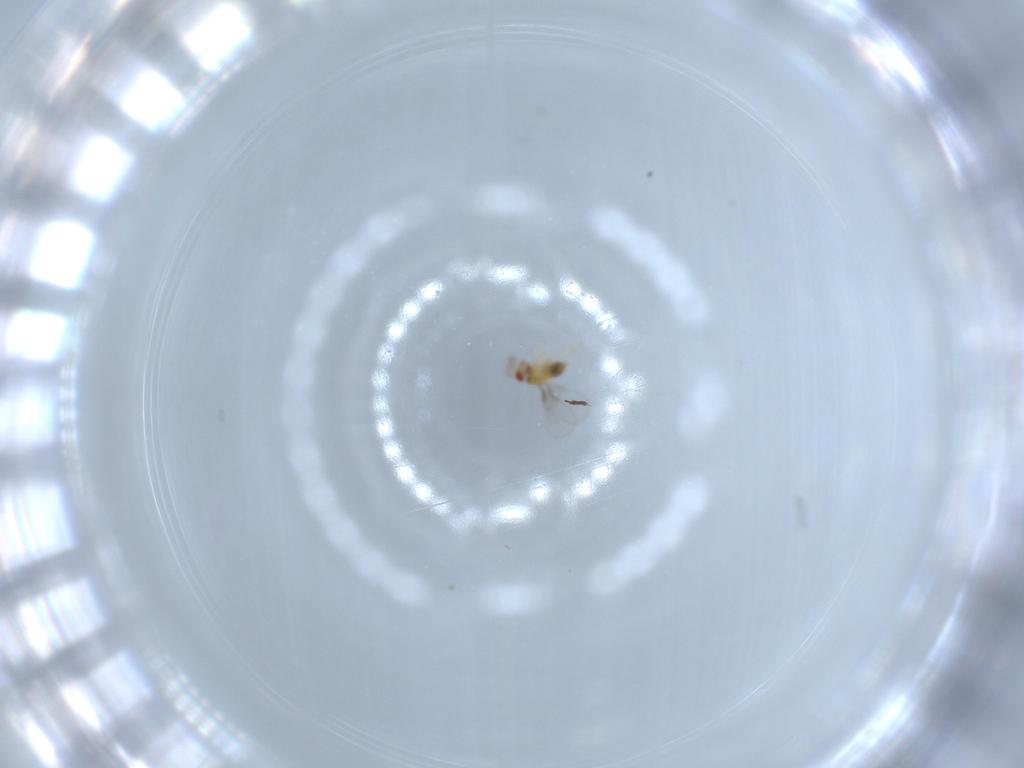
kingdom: Animalia
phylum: Arthropoda
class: Insecta
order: Hymenoptera
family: Trichogrammatidae
